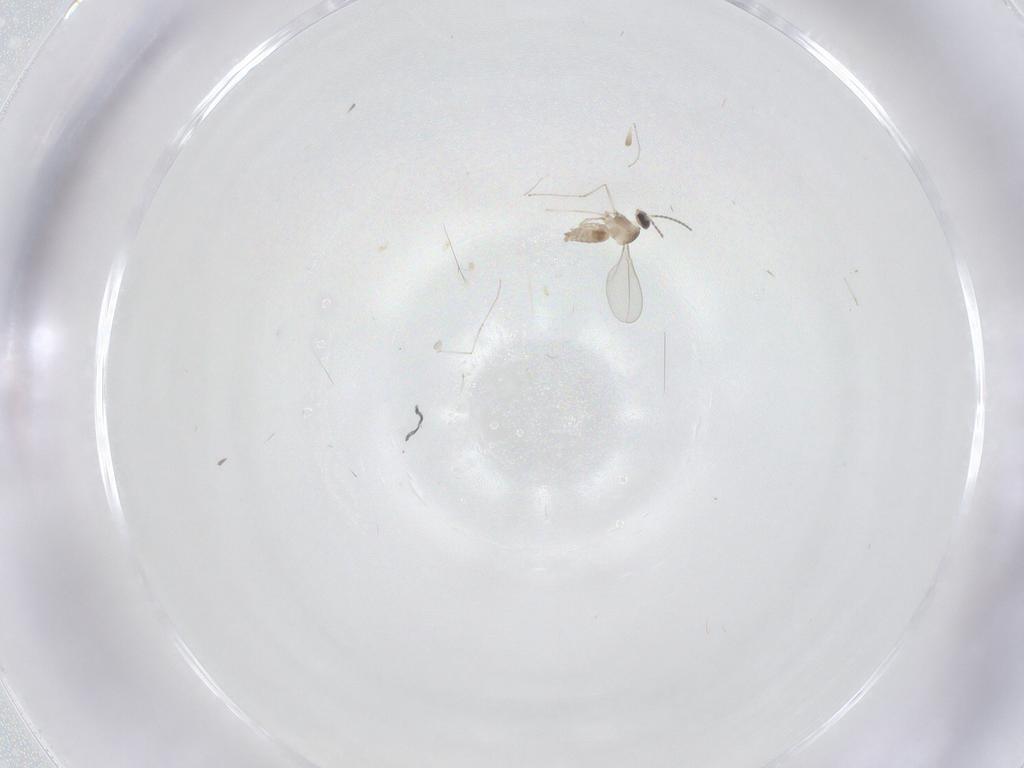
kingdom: Animalia
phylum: Arthropoda
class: Insecta
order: Diptera
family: Cecidomyiidae
